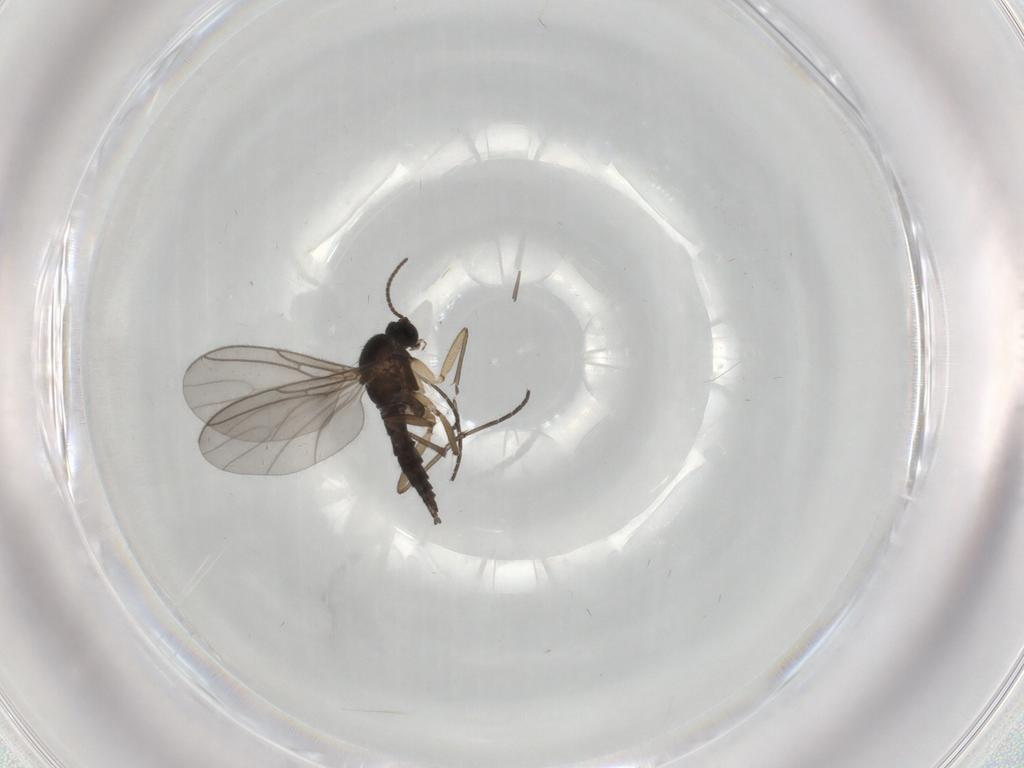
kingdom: Animalia
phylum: Arthropoda
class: Insecta
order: Diptera
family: Sciaridae
